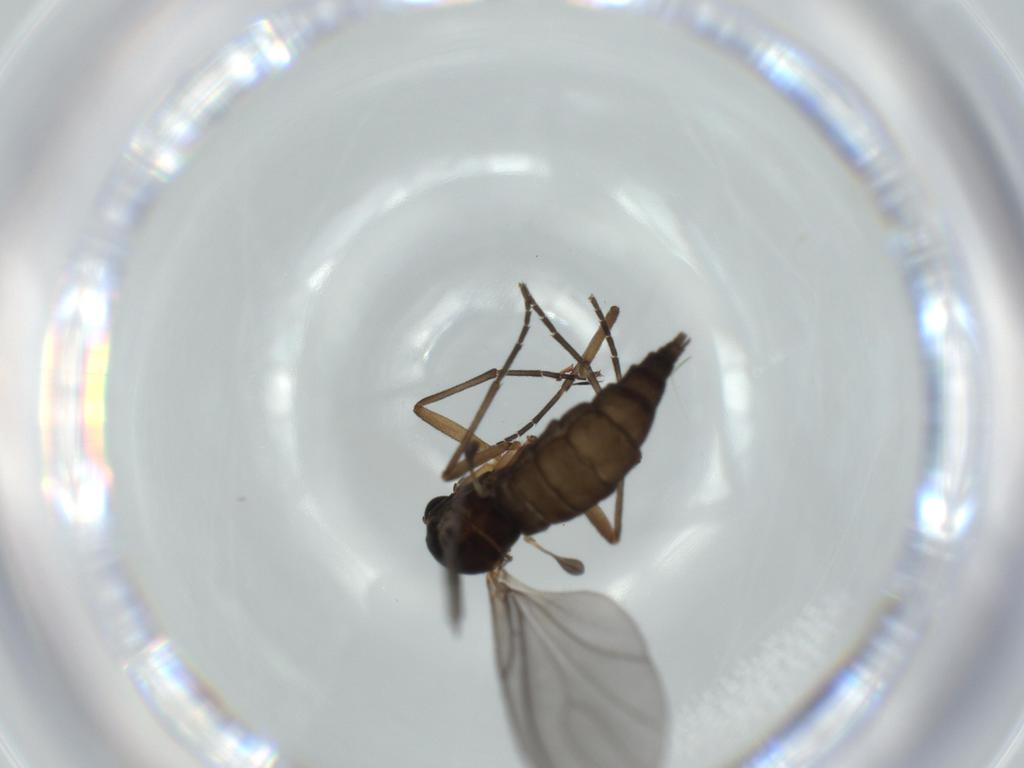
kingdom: Animalia
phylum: Arthropoda
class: Insecta
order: Diptera
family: Sciaridae
